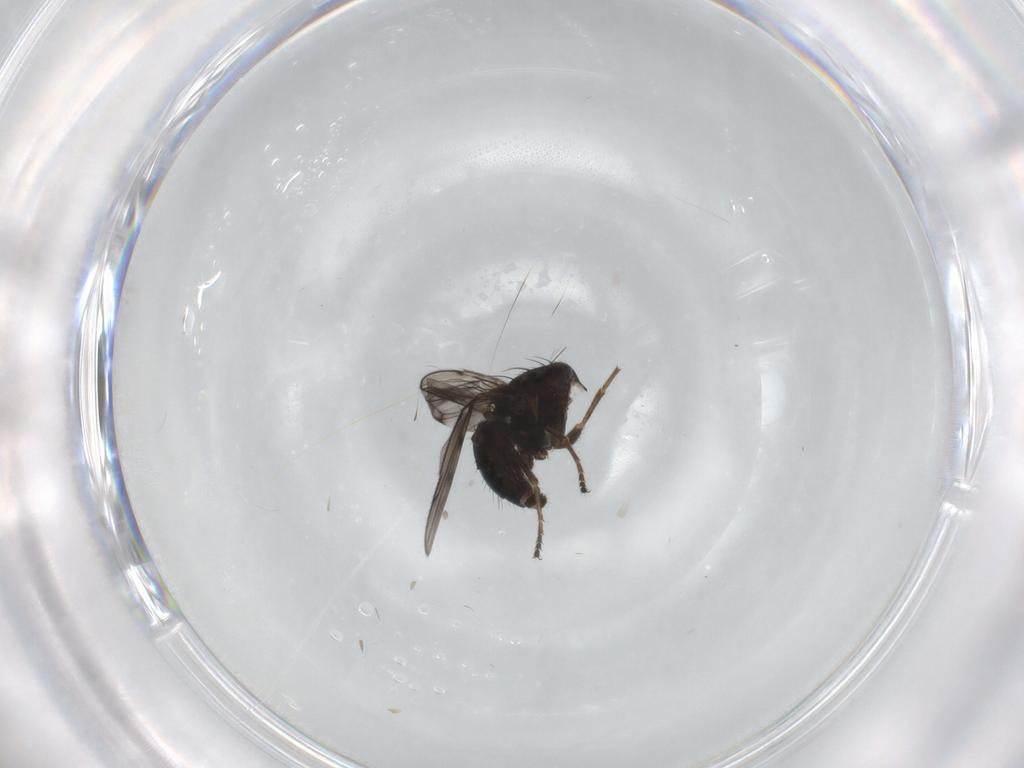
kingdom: Animalia
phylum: Arthropoda
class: Insecta
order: Diptera
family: Ephydridae
